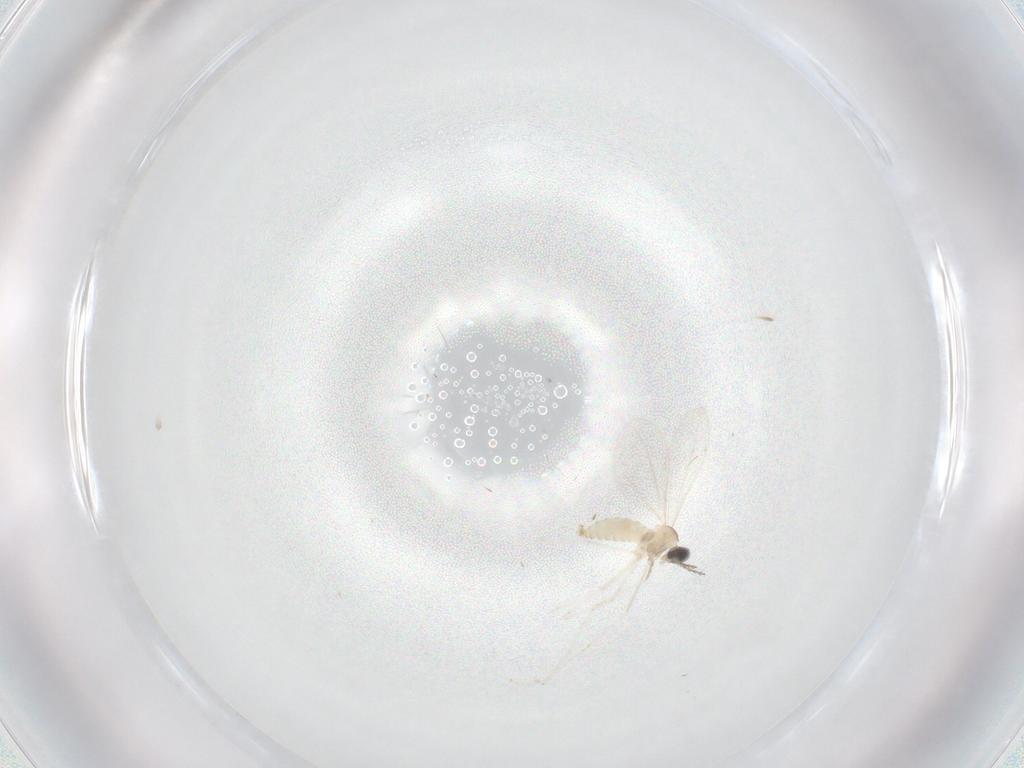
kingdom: Animalia
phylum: Arthropoda
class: Insecta
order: Diptera
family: Cecidomyiidae
